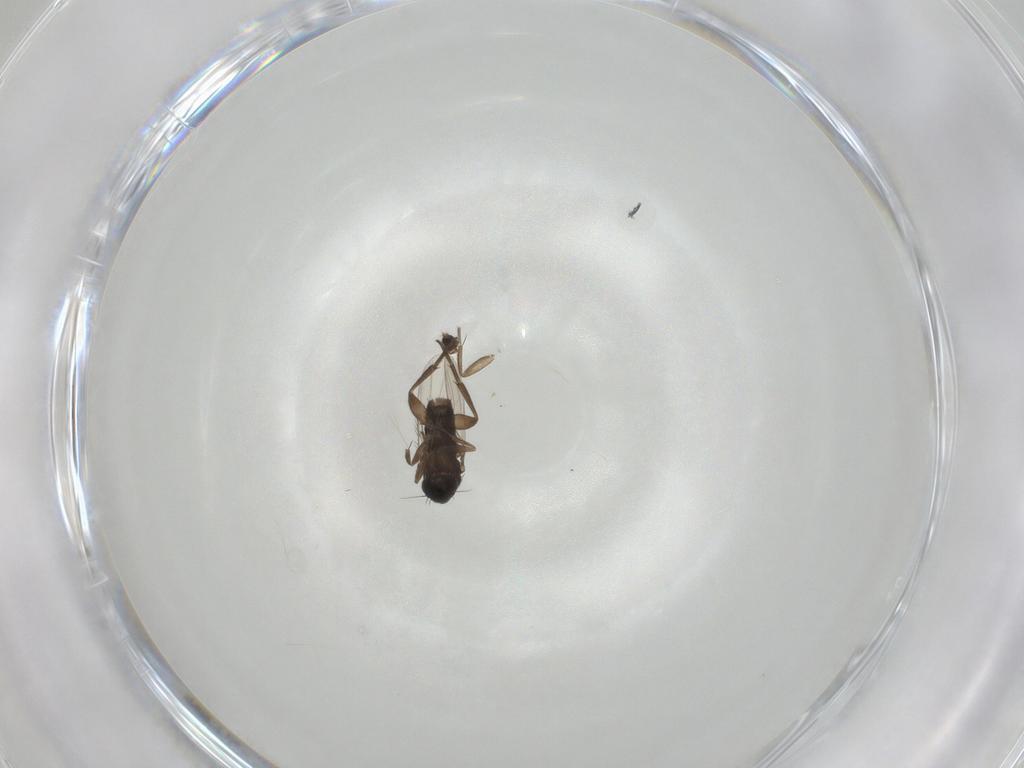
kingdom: Animalia
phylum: Arthropoda
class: Insecta
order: Diptera
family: Phoridae
